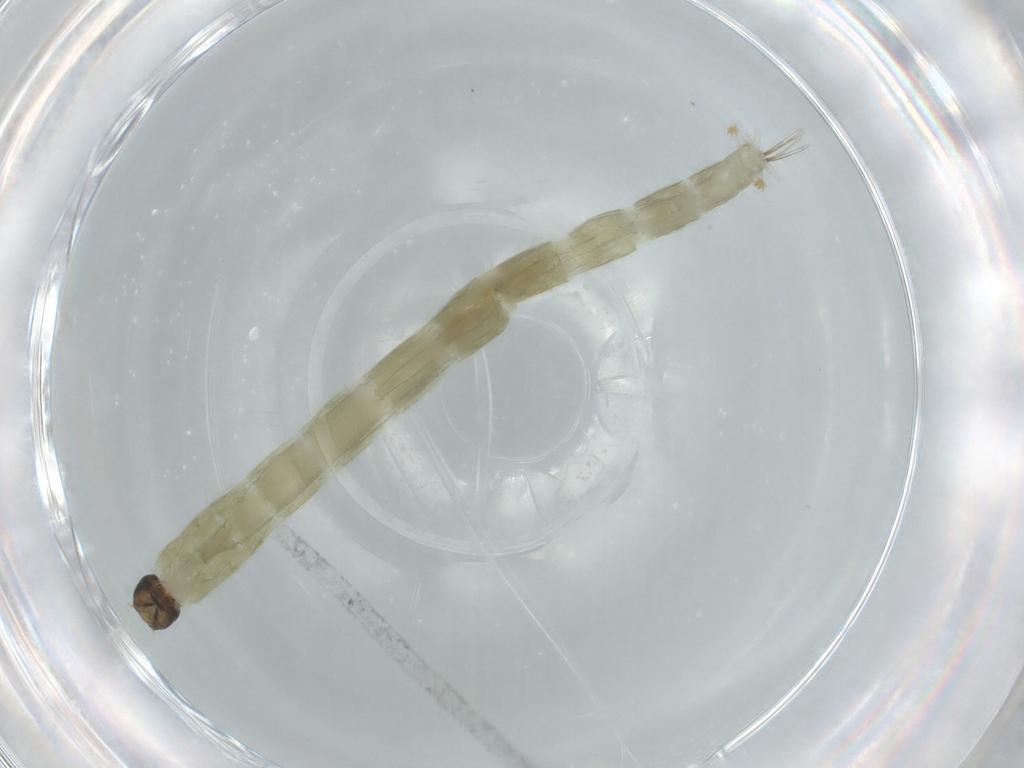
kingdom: Animalia
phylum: Arthropoda
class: Insecta
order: Diptera
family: Chironomidae
